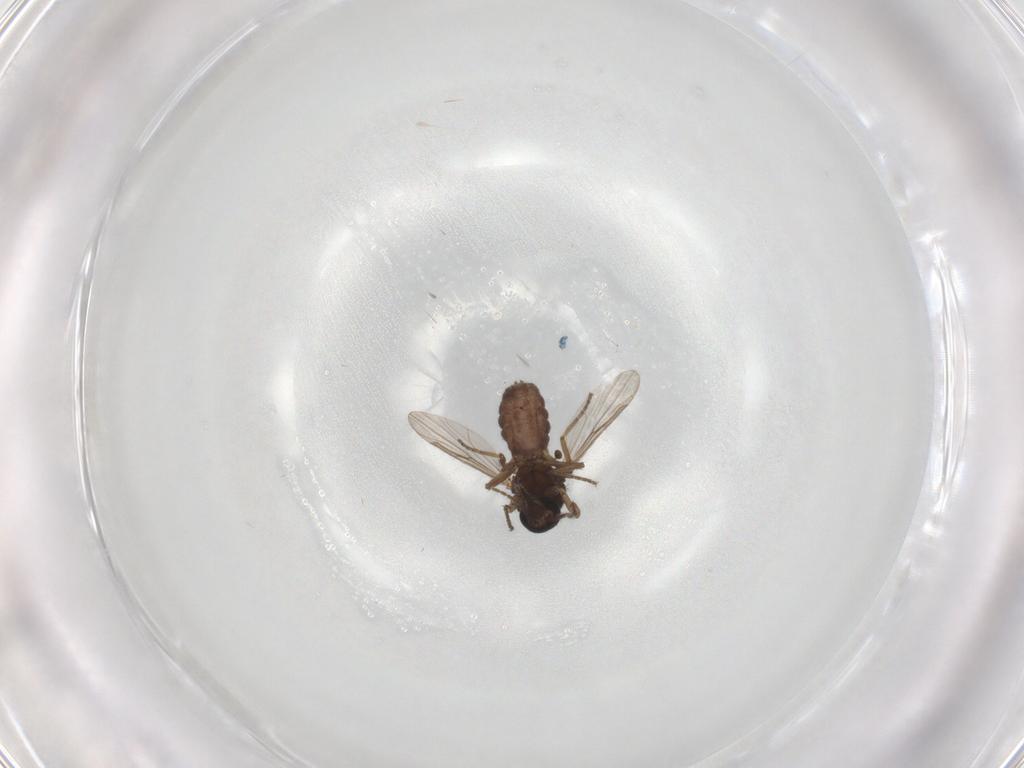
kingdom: Animalia
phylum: Arthropoda
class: Insecta
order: Diptera
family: Ceratopogonidae
